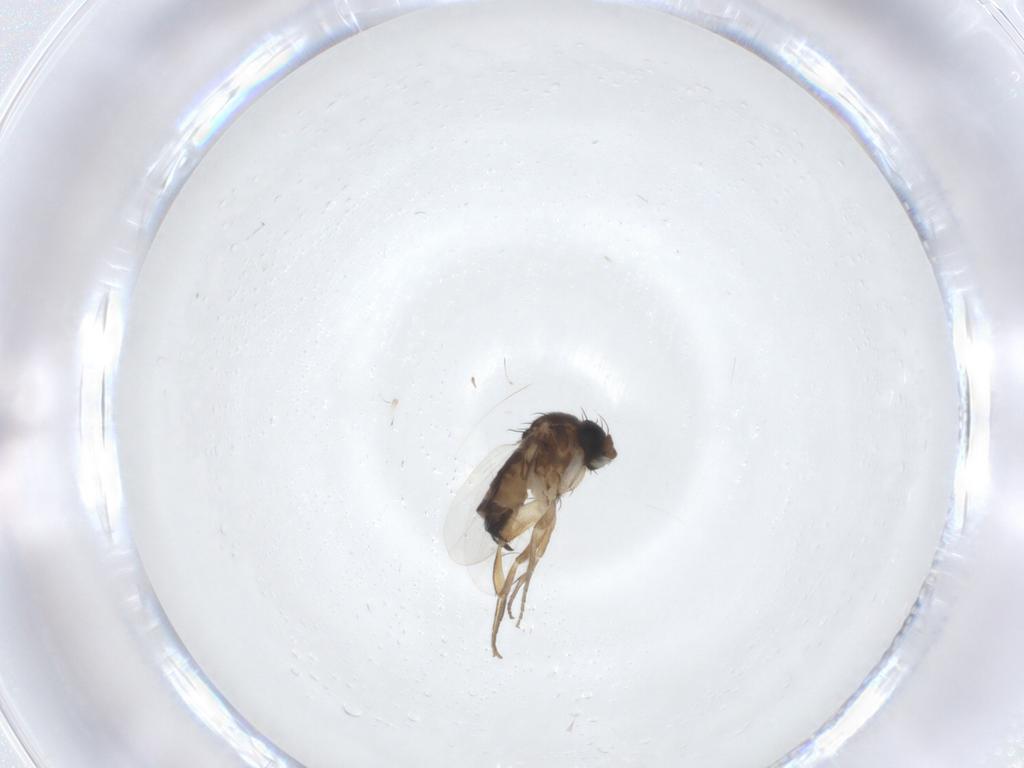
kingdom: Animalia
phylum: Arthropoda
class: Insecta
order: Diptera
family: Phoridae
